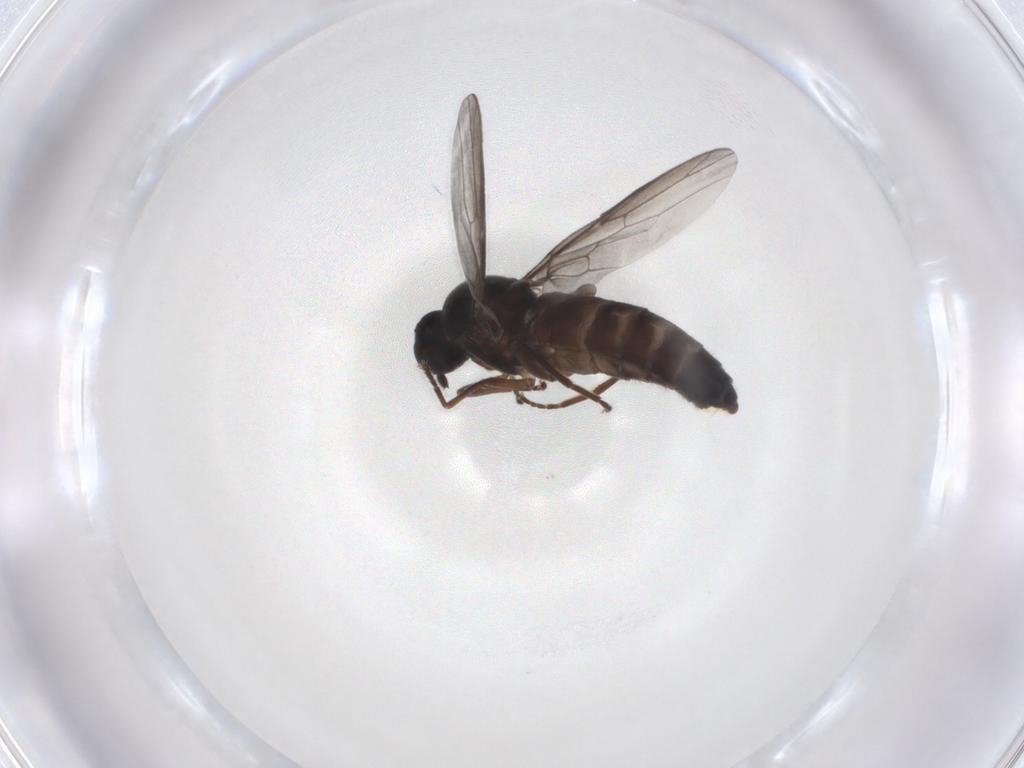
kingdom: Animalia
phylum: Arthropoda
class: Insecta
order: Diptera
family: Scenopinidae
